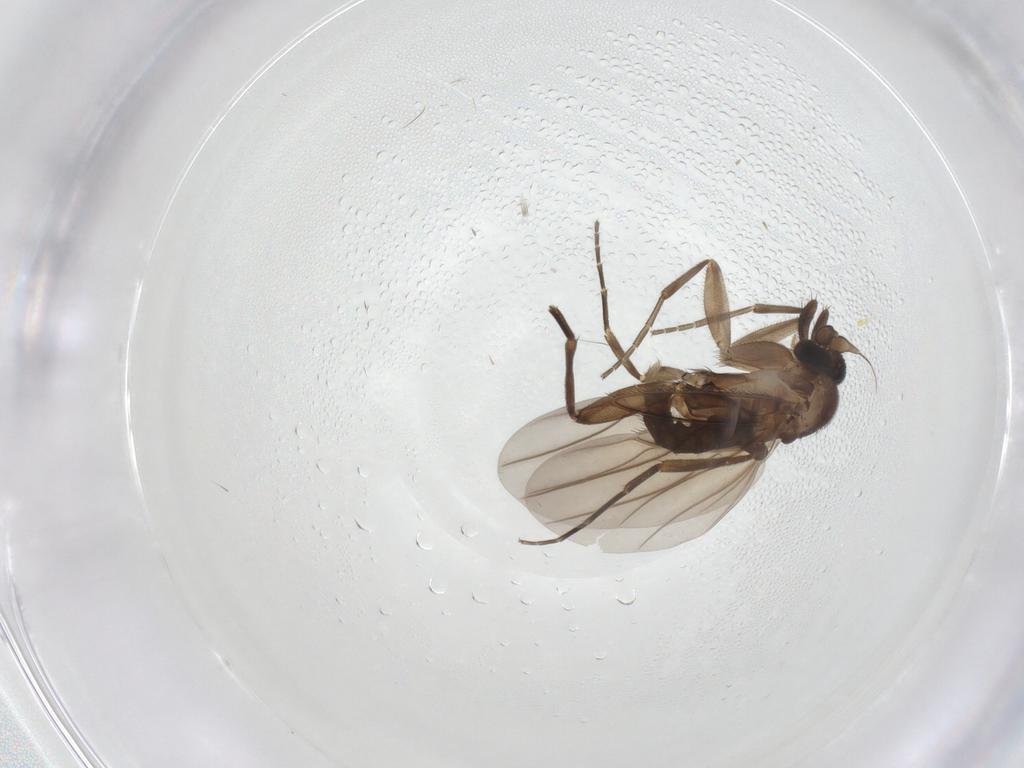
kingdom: Animalia
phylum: Arthropoda
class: Insecta
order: Diptera
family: Phoridae
